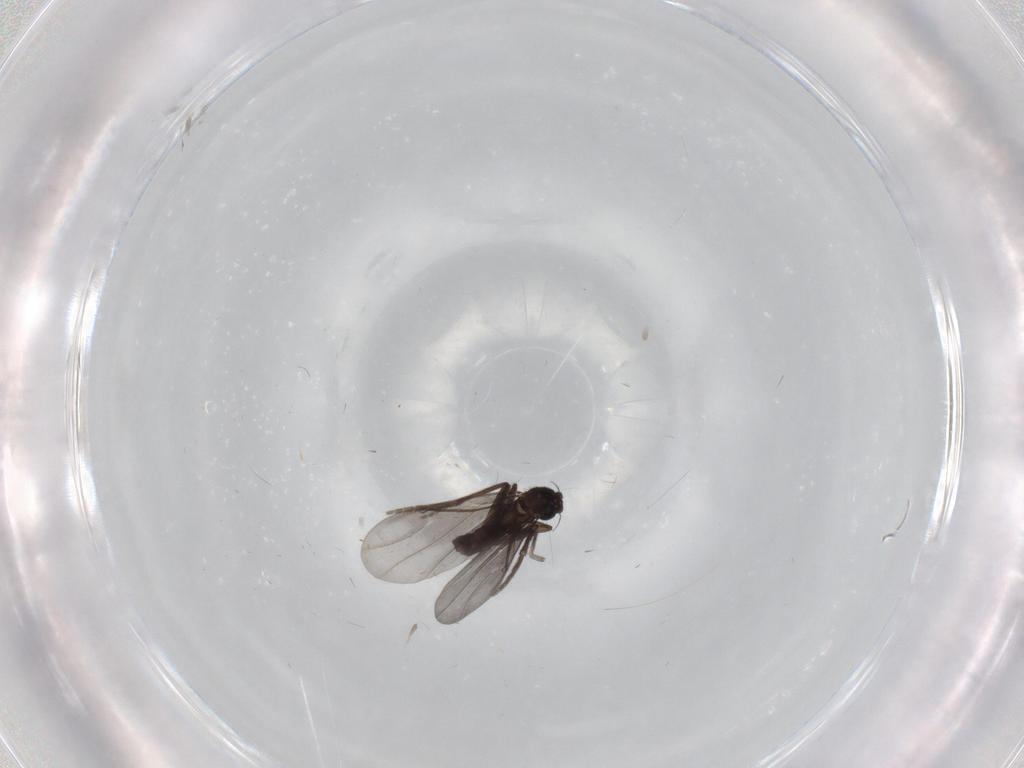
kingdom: Animalia
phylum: Arthropoda
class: Insecta
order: Diptera
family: Phoridae
